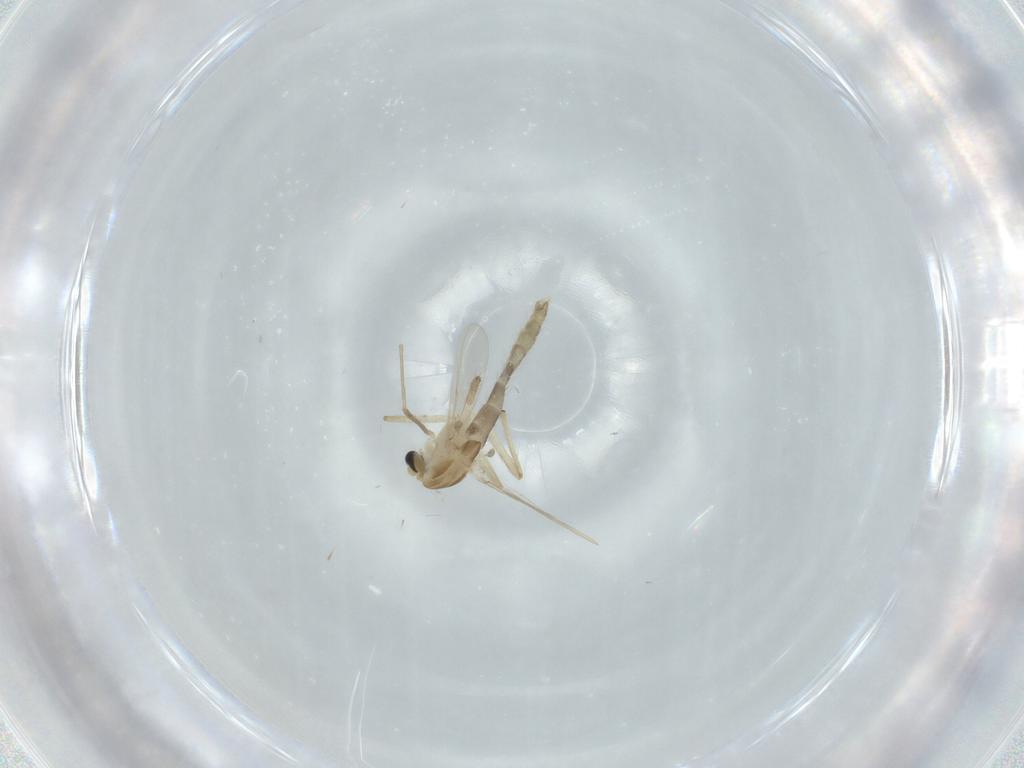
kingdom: Animalia
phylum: Arthropoda
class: Insecta
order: Diptera
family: Chironomidae
